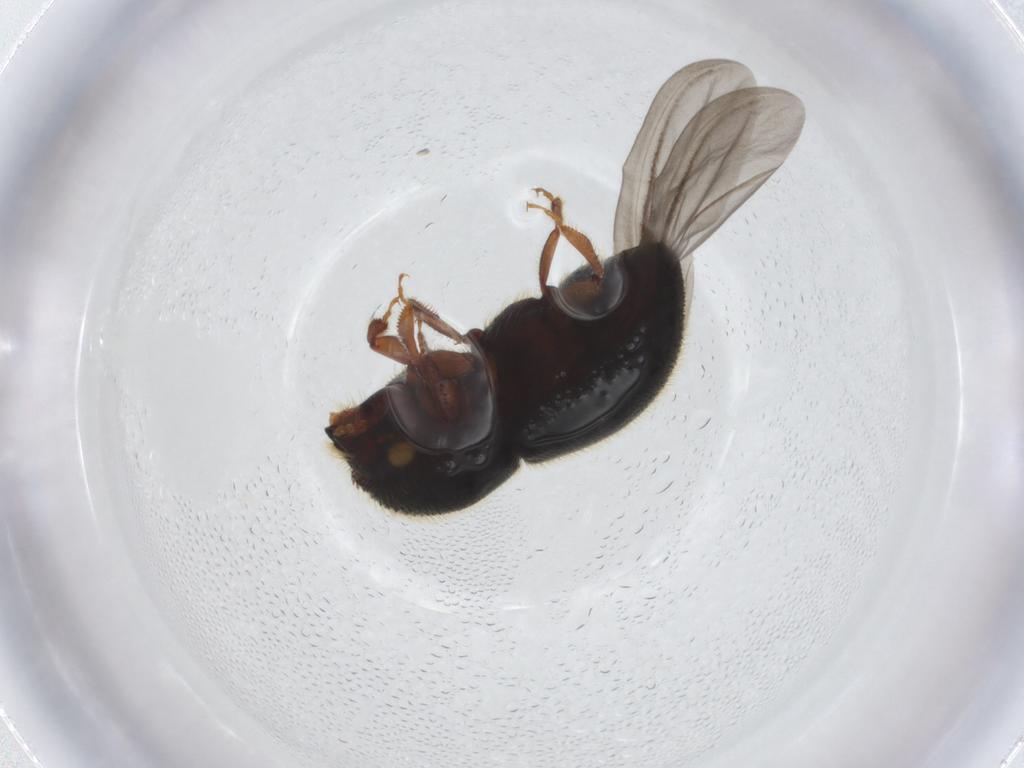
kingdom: Animalia
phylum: Arthropoda
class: Insecta
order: Coleoptera
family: Curculionidae
